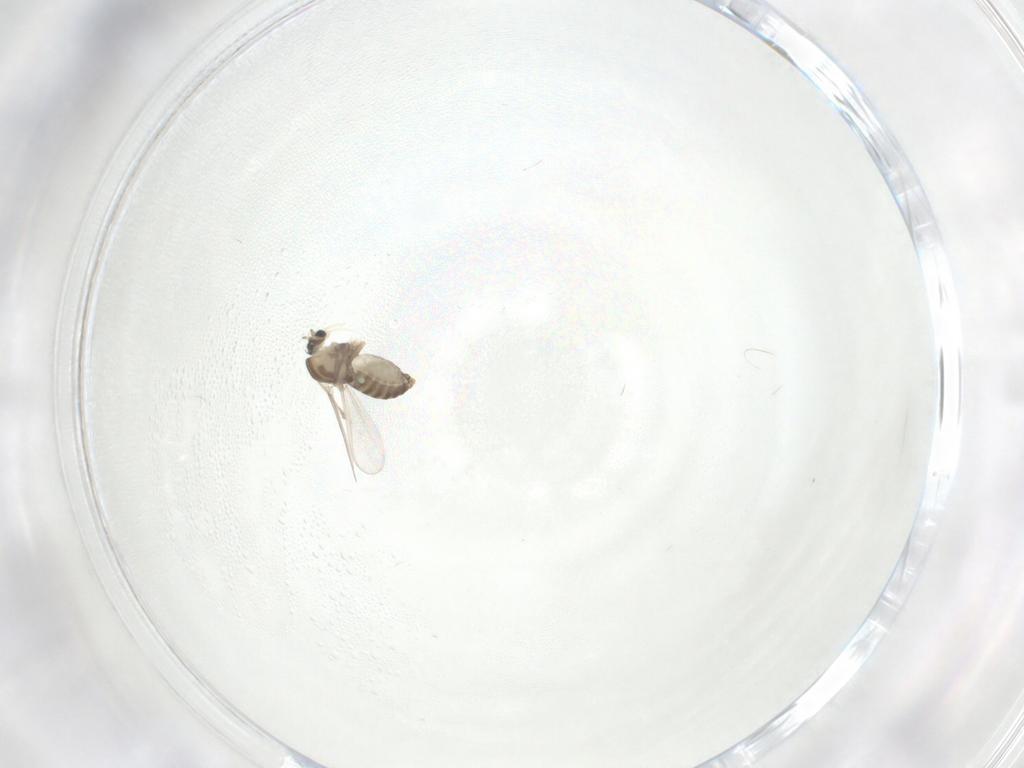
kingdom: Animalia
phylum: Arthropoda
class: Insecta
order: Diptera
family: Chironomidae
